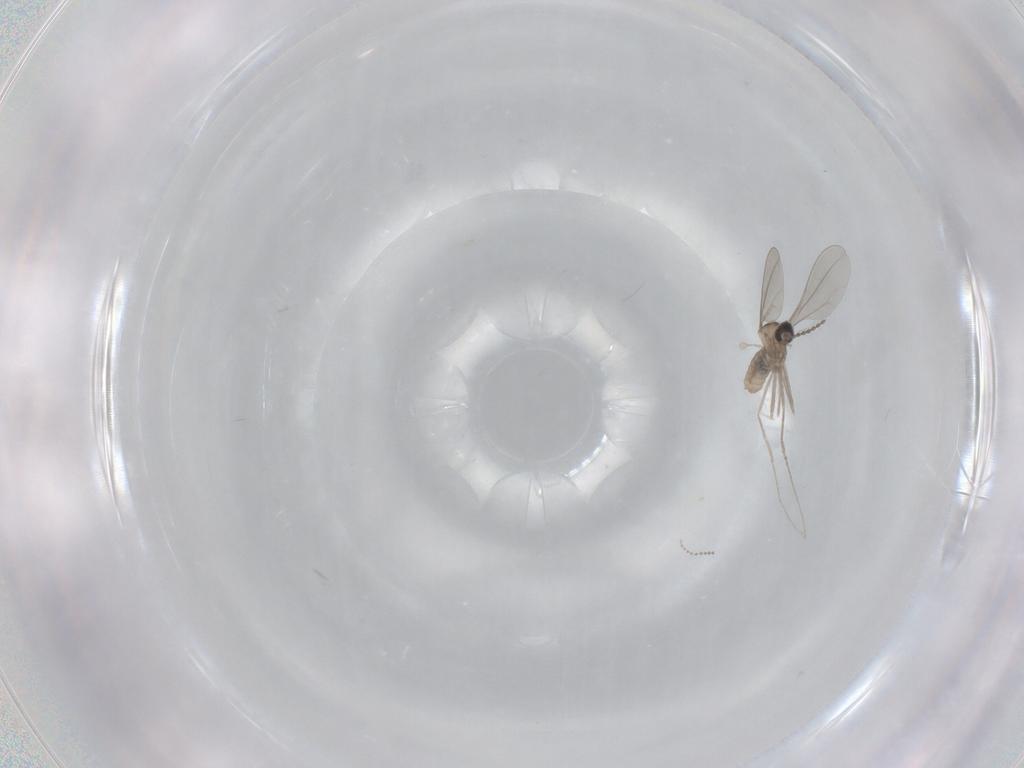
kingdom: Animalia
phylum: Arthropoda
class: Insecta
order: Diptera
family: Cecidomyiidae
